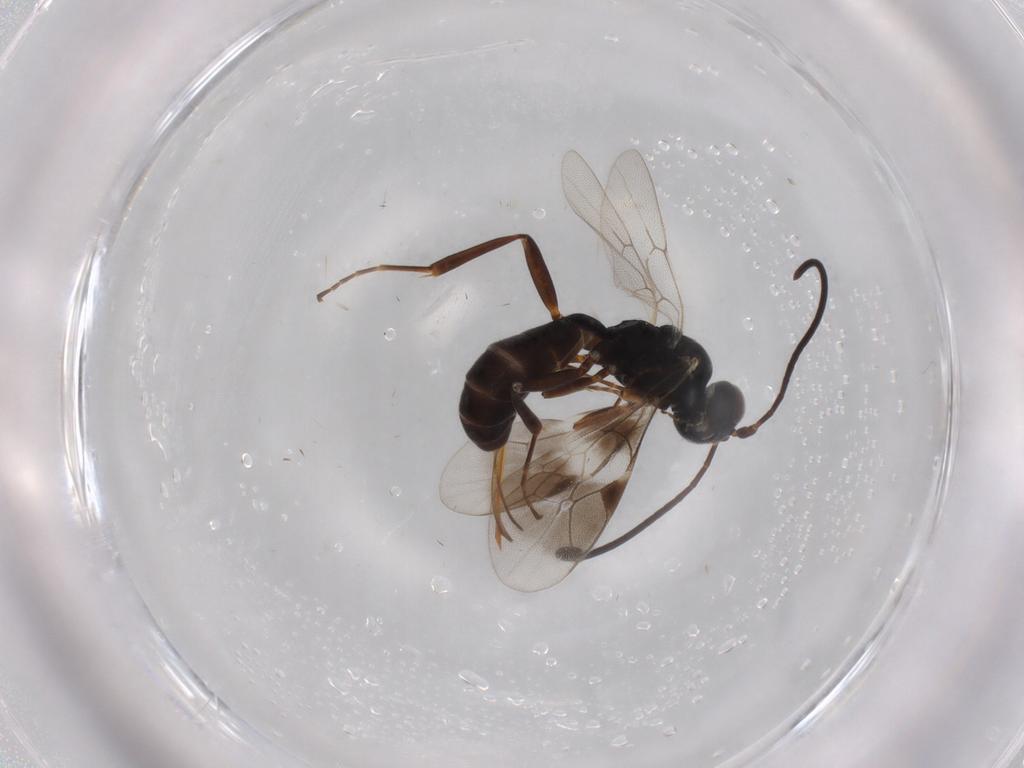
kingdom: Animalia
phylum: Arthropoda
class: Insecta
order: Hymenoptera
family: Ichneumonidae
